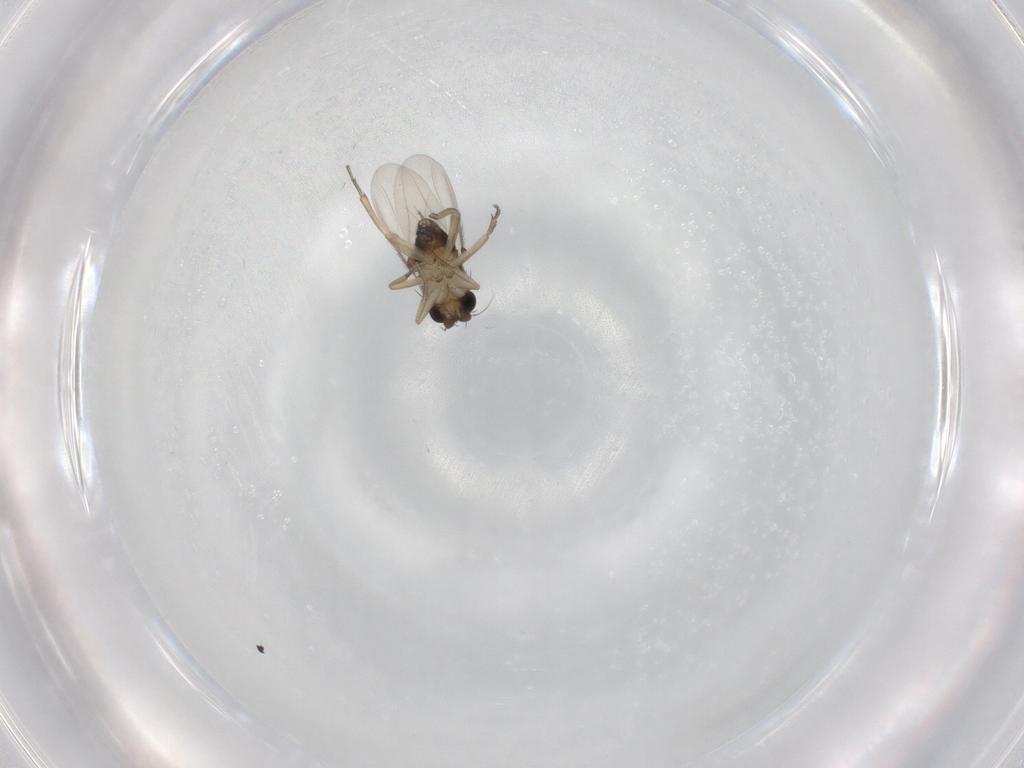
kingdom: Animalia
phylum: Arthropoda
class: Insecta
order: Diptera
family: Phoridae
